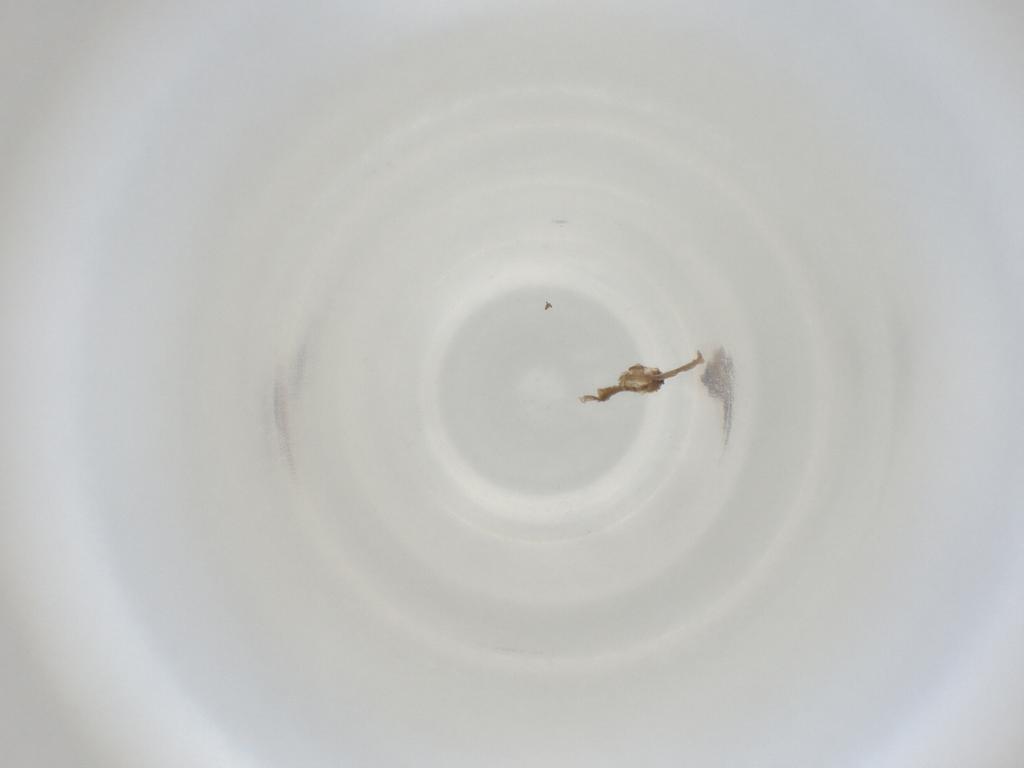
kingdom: Animalia
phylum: Arthropoda
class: Insecta
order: Diptera
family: Cecidomyiidae
